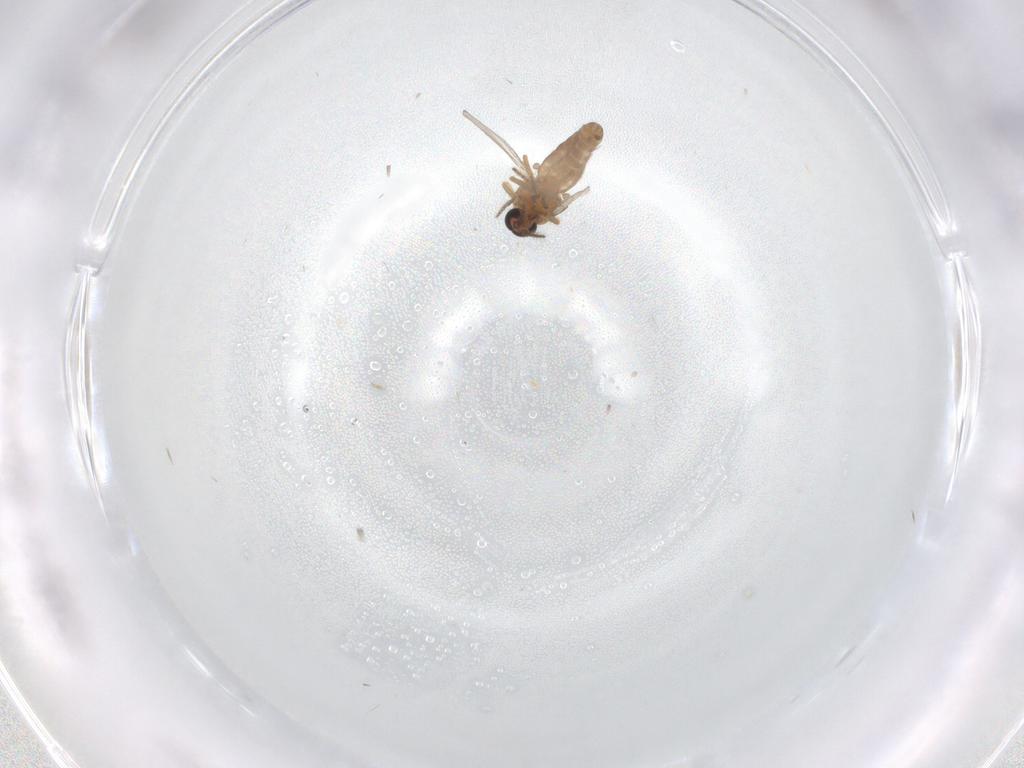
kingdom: Animalia
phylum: Arthropoda
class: Insecta
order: Diptera
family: Ceratopogonidae
